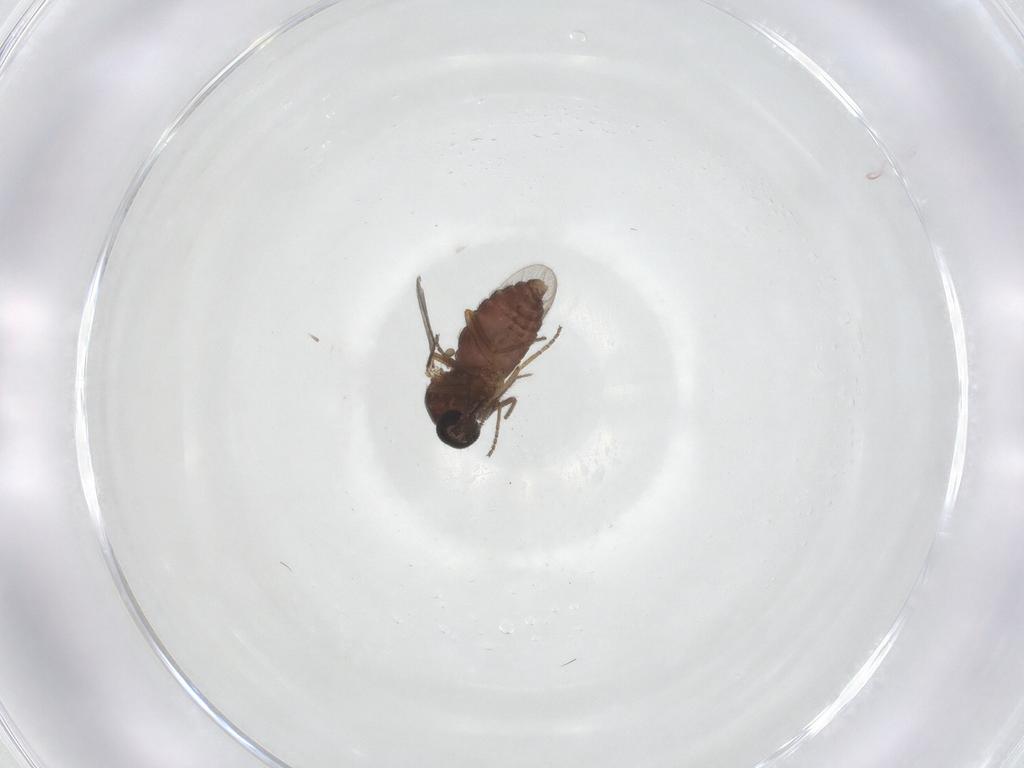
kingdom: Animalia
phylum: Arthropoda
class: Insecta
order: Diptera
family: Ceratopogonidae
